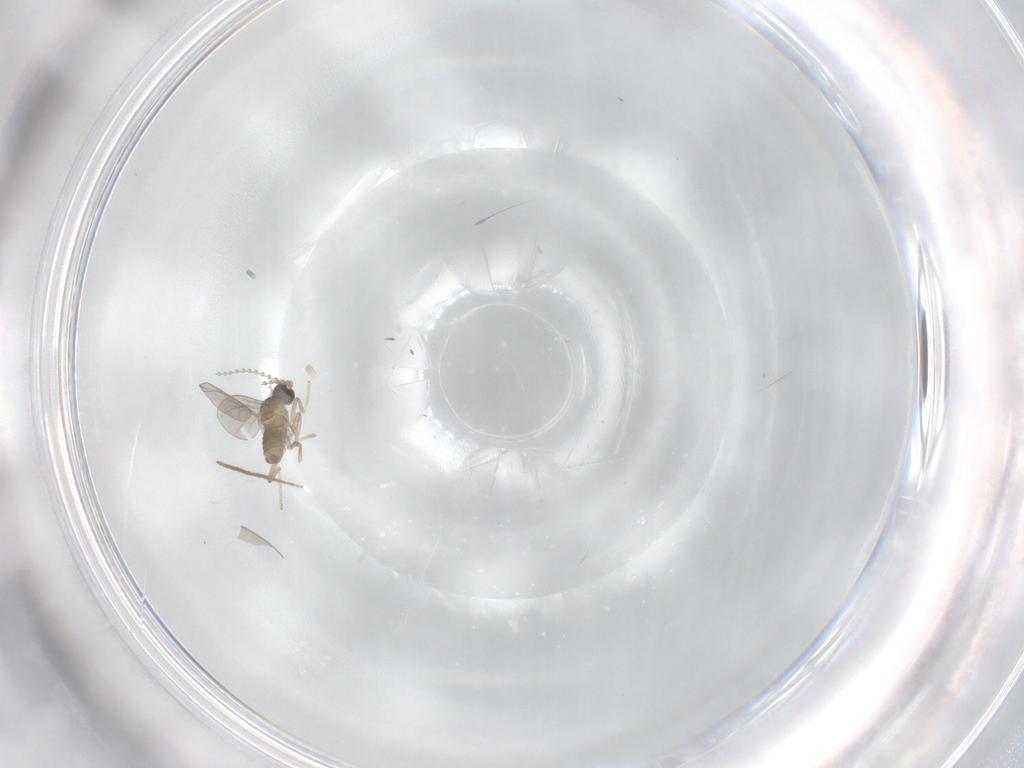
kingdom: Animalia
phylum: Arthropoda
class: Insecta
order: Diptera
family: Cecidomyiidae
